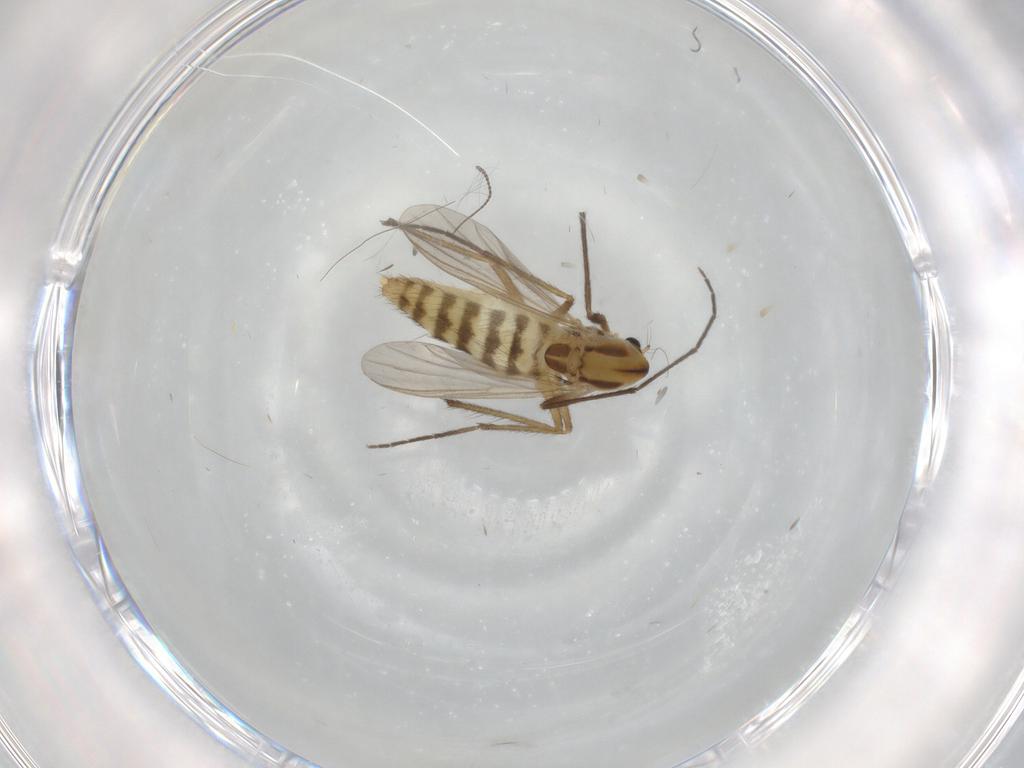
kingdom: Animalia
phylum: Arthropoda
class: Insecta
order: Diptera
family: Chironomidae
